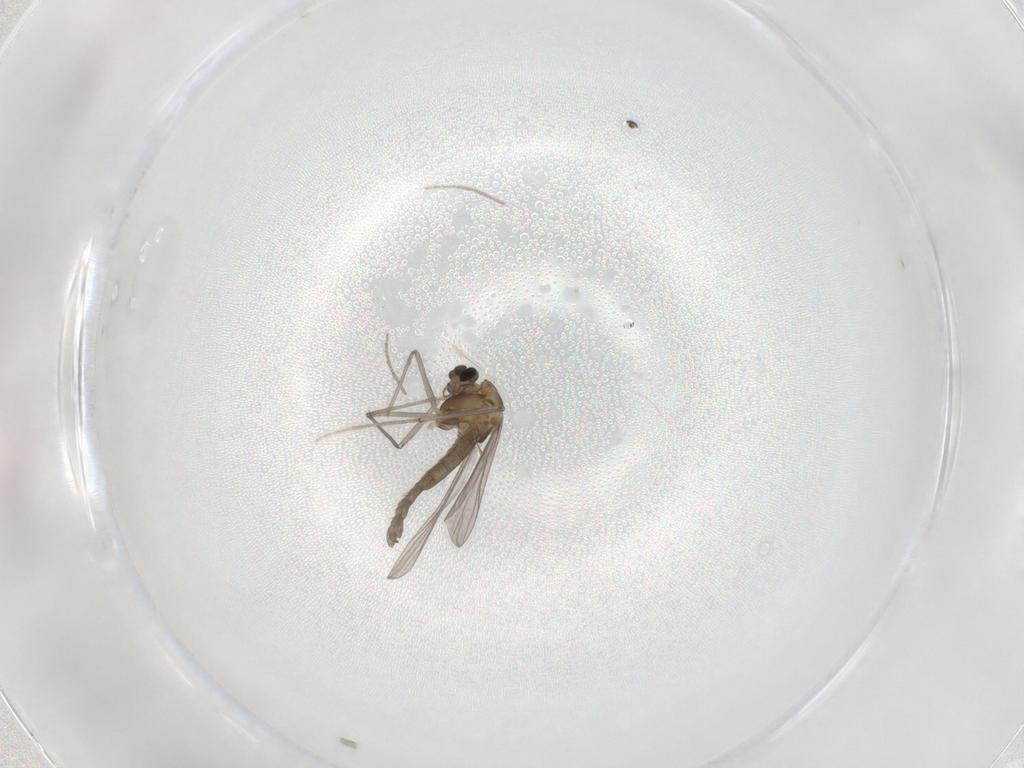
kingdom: Animalia
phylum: Arthropoda
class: Insecta
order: Diptera
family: Chironomidae
